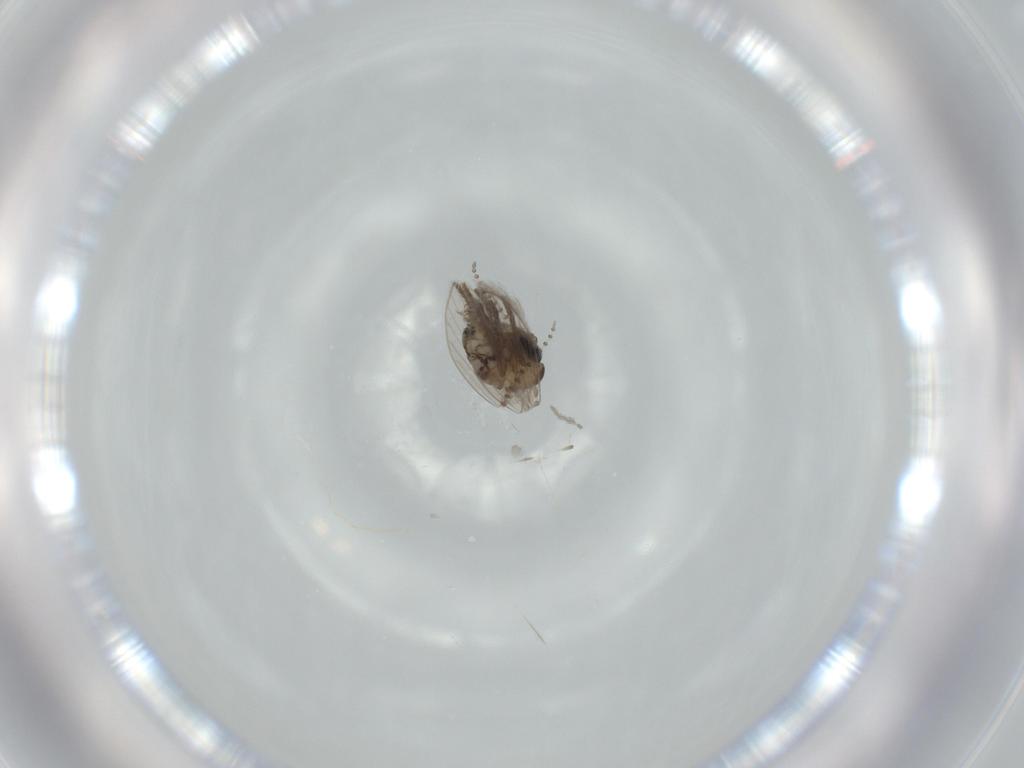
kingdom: Animalia
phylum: Arthropoda
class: Insecta
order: Diptera
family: Psychodidae
